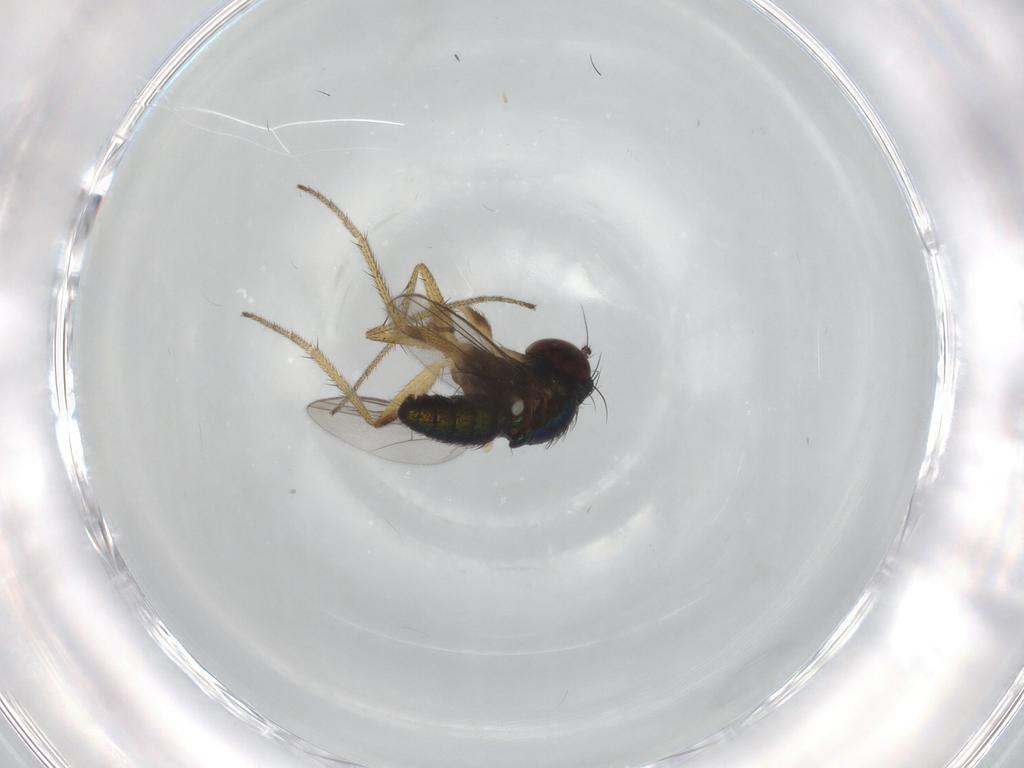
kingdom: Animalia
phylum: Arthropoda
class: Insecta
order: Diptera
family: Dolichopodidae
